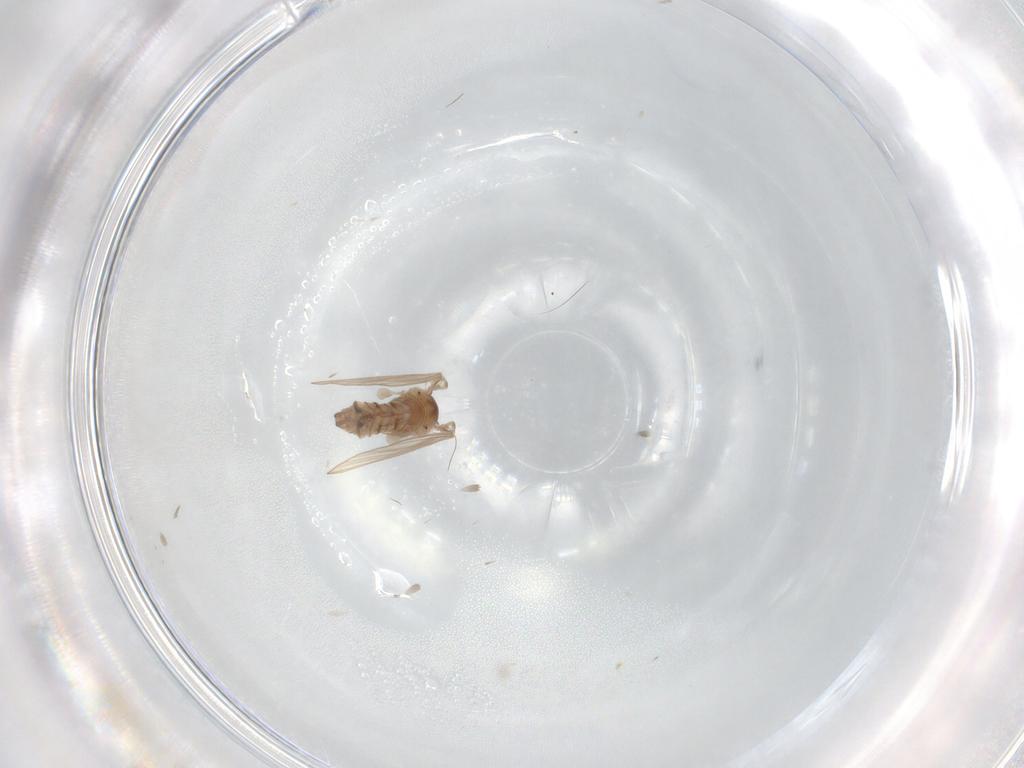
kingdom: Animalia
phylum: Arthropoda
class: Insecta
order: Diptera
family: Psychodidae
